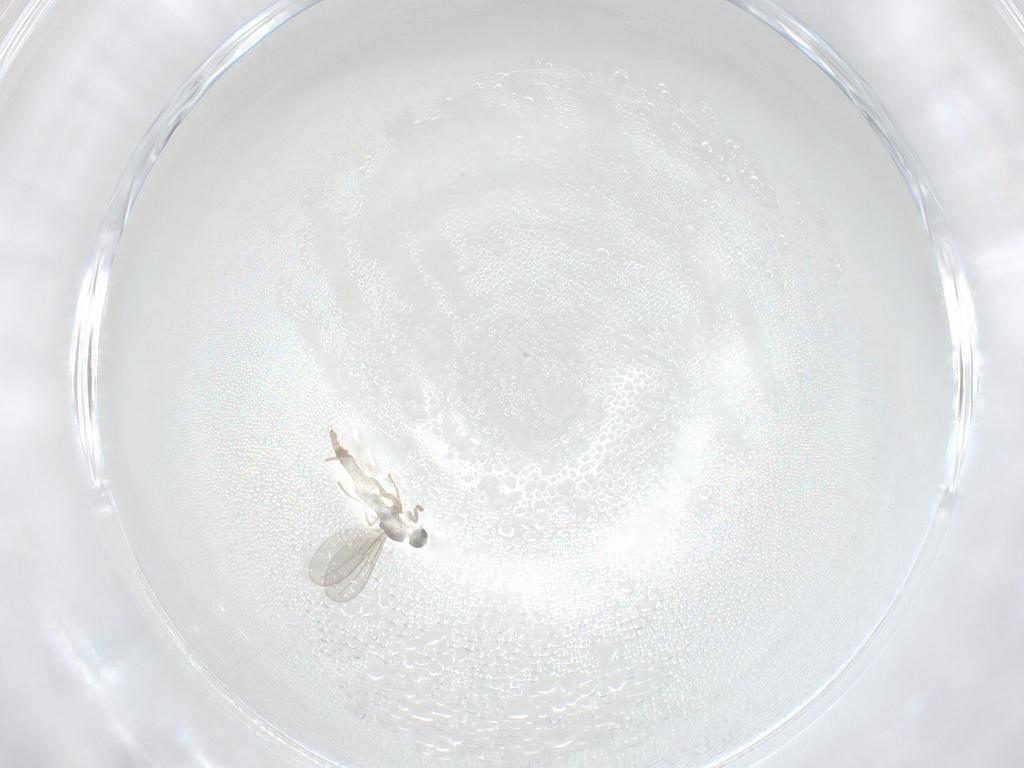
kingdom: Animalia
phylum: Arthropoda
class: Insecta
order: Diptera
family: Cecidomyiidae
